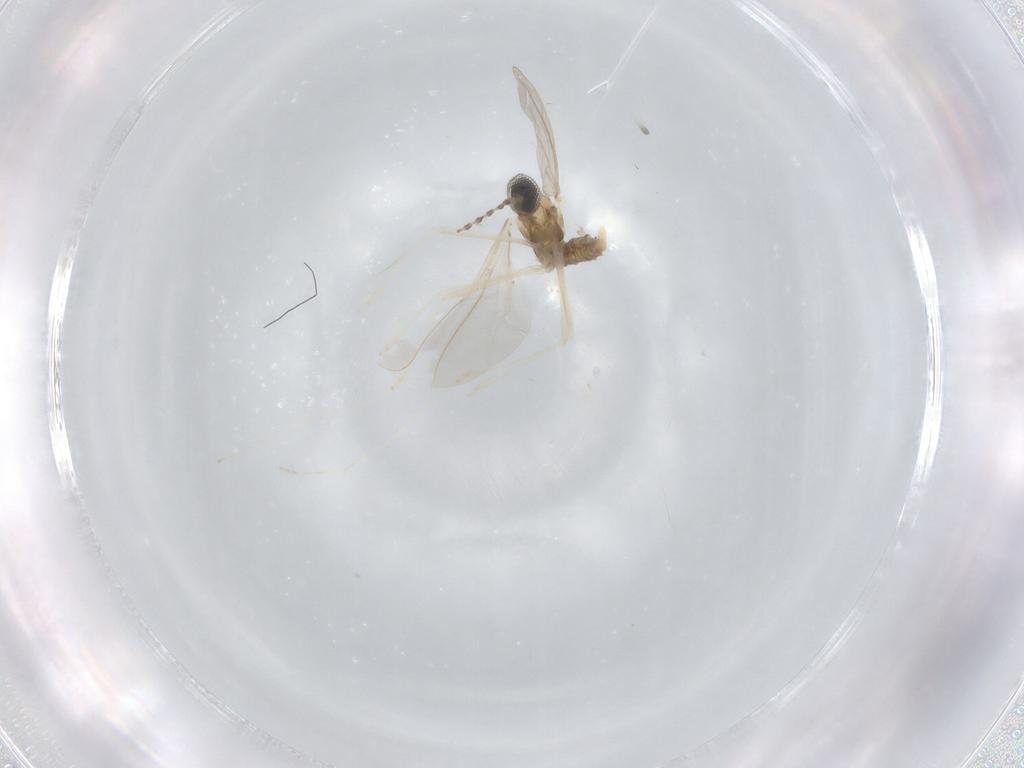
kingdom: Animalia
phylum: Arthropoda
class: Insecta
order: Diptera
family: Cecidomyiidae
